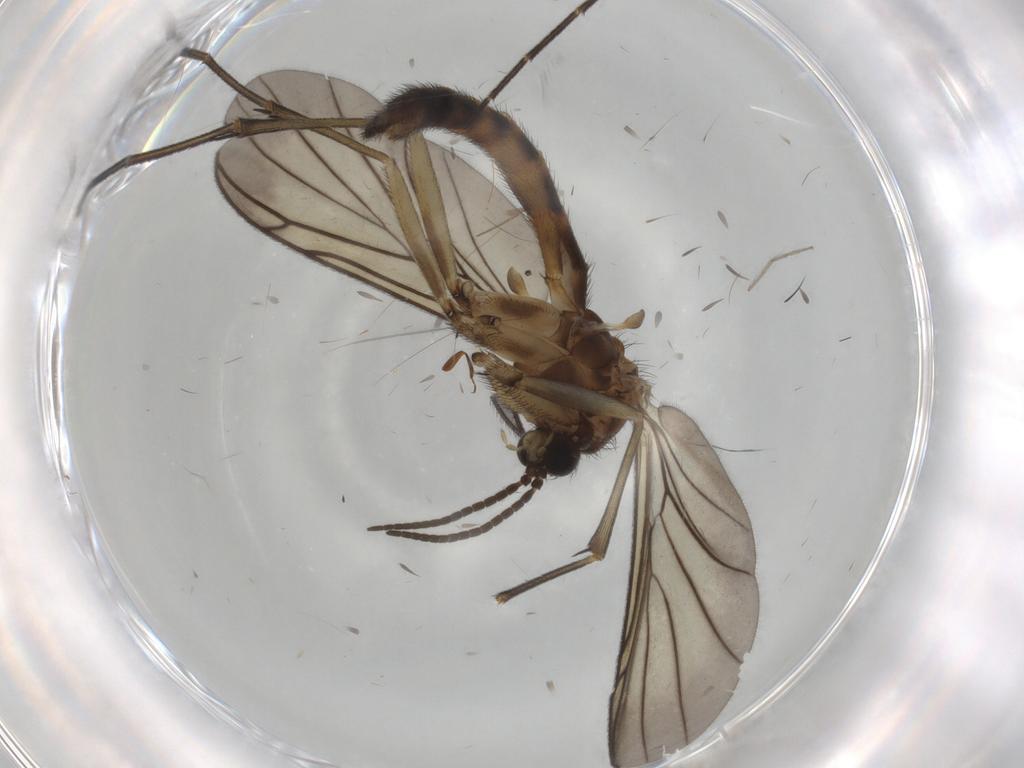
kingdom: Animalia
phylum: Arthropoda
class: Insecta
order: Diptera
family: Keroplatidae
